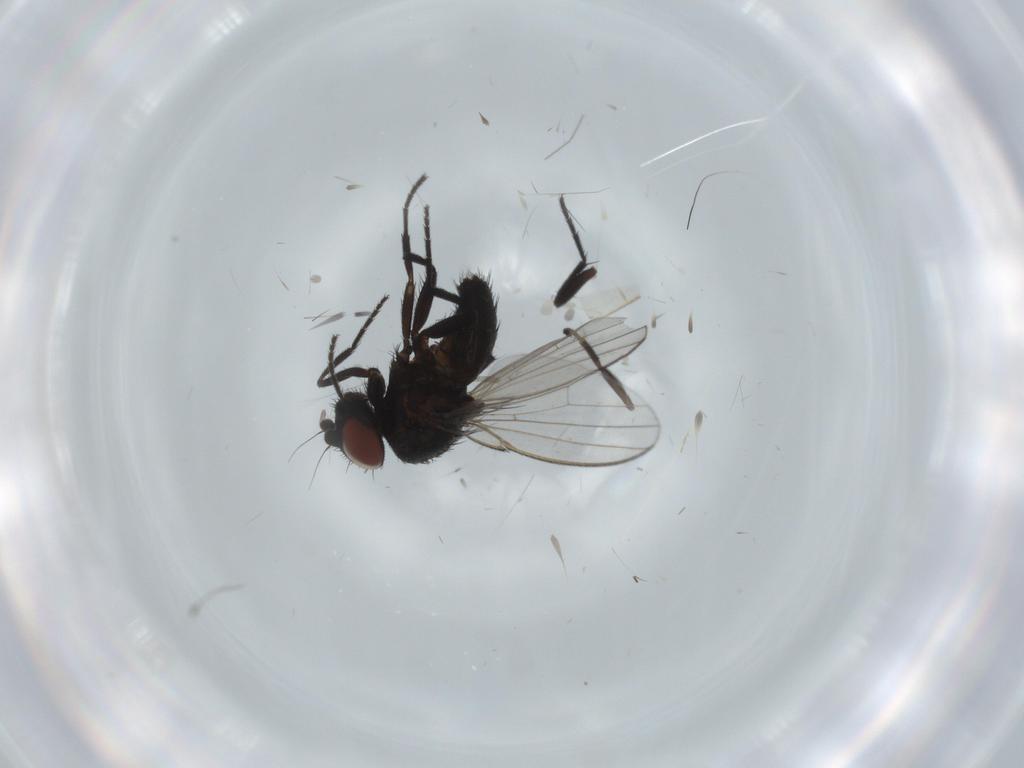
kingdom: Animalia
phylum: Arthropoda
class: Insecta
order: Diptera
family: Milichiidae
